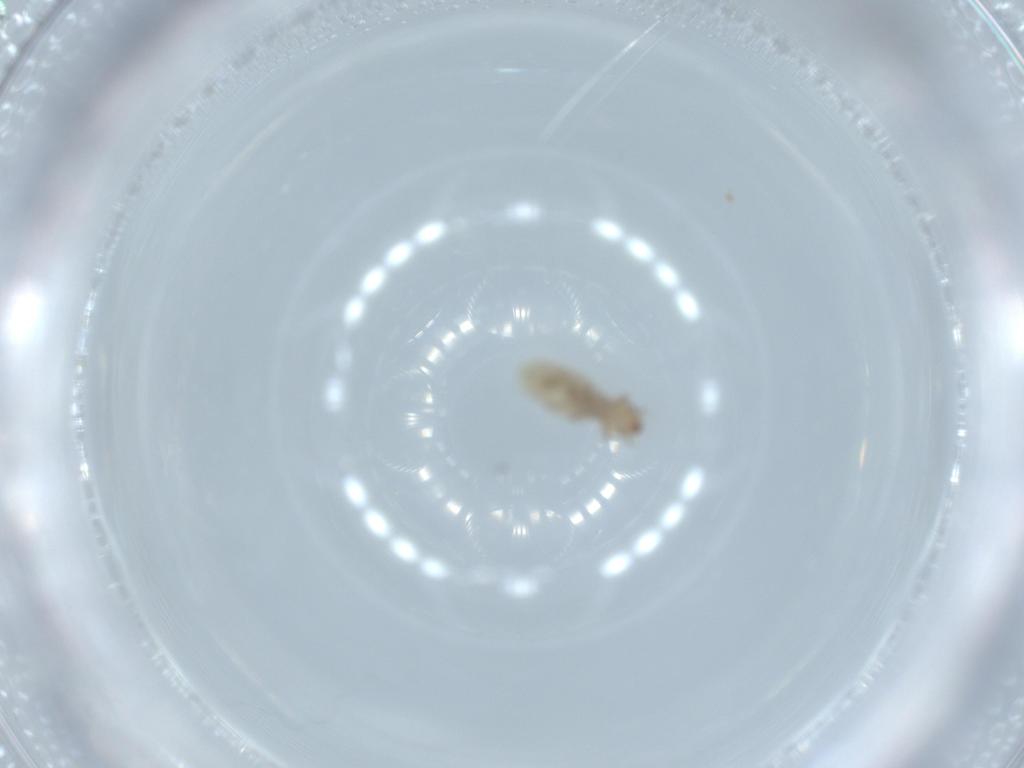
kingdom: Animalia
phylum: Arthropoda
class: Insecta
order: Psocodea
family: Liposcelididae
